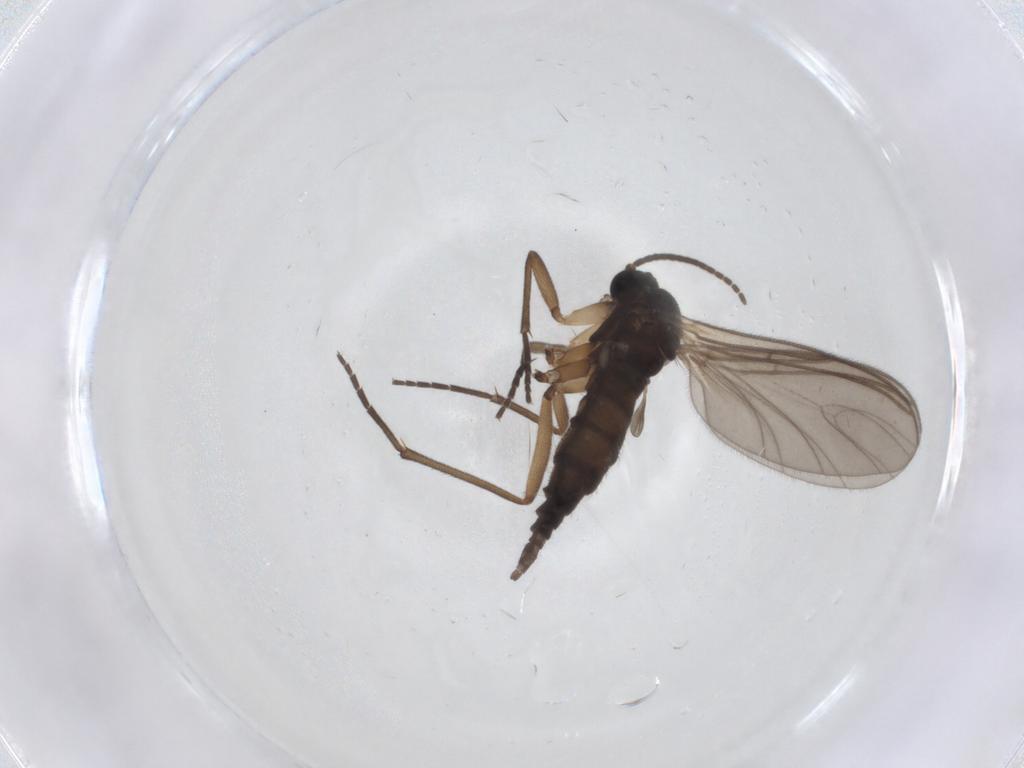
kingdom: Animalia
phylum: Arthropoda
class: Insecta
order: Diptera
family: Sciaridae
